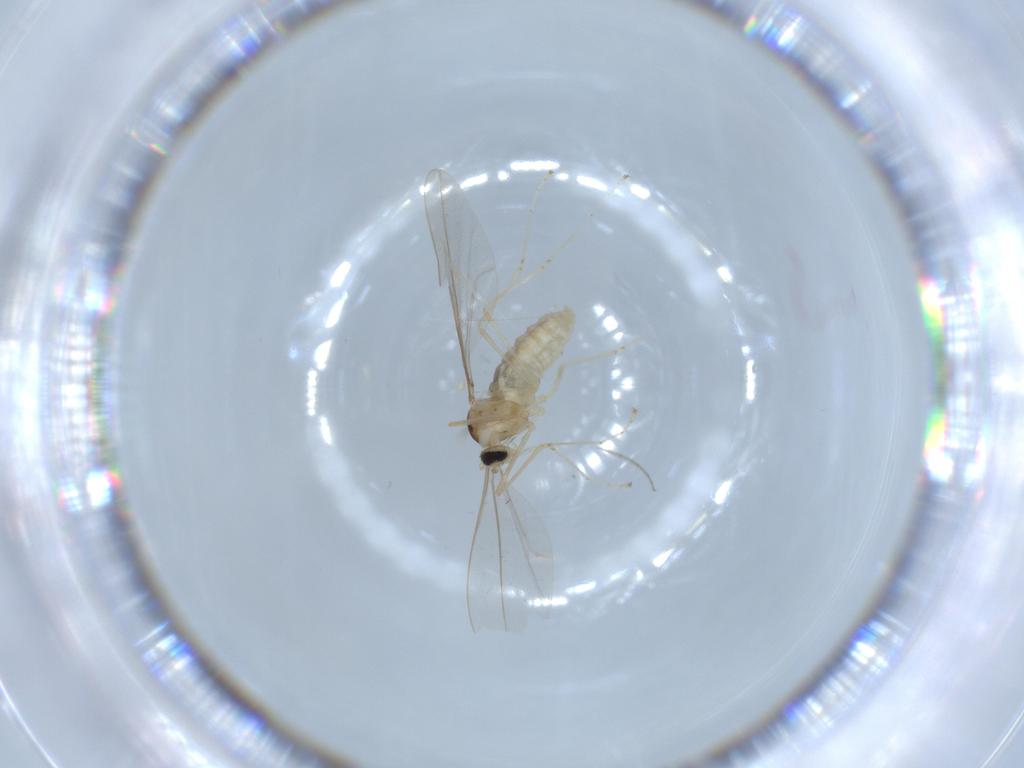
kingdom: Animalia
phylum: Arthropoda
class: Insecta
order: Diptera
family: Cecidomyiidae
